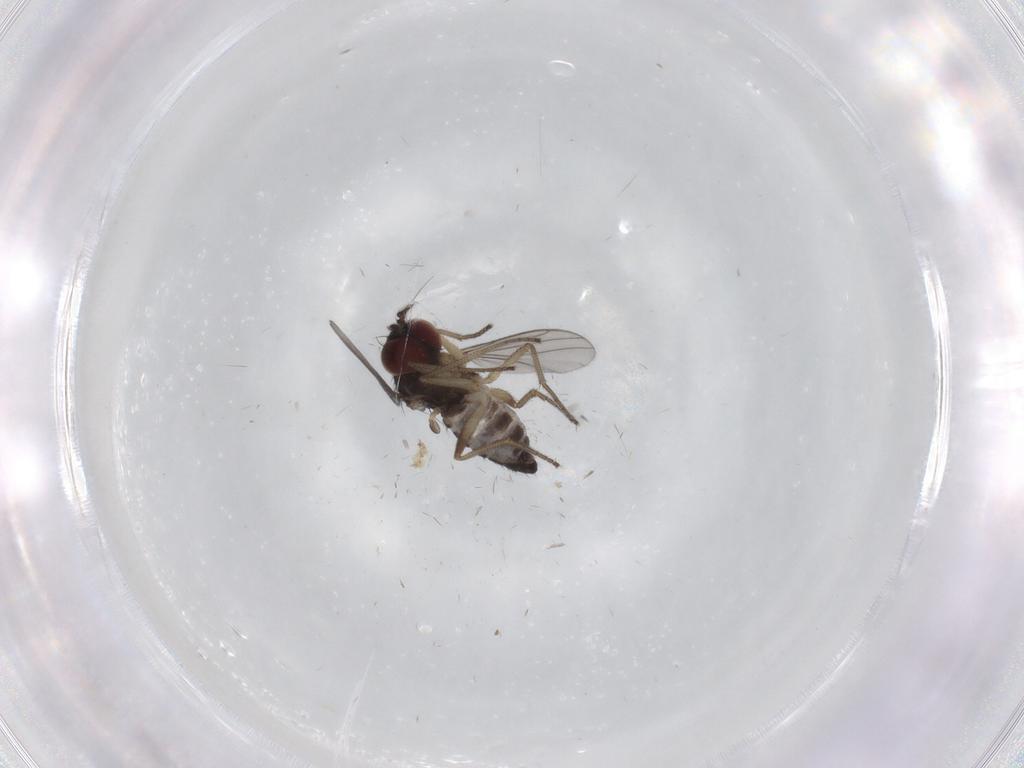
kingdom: Animalia
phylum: Arthropoda
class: Insecta
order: Diptera
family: Dolichopodidae
